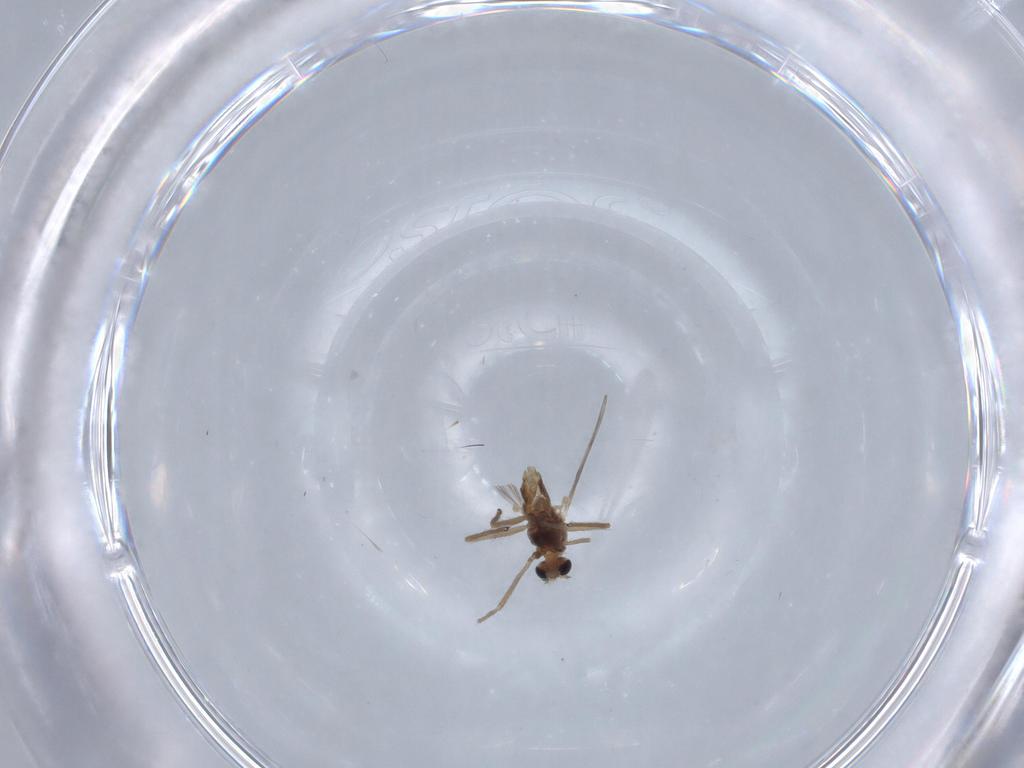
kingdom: Animalia
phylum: Arthropoda
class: Insecta
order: Diptera
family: Chironomidae
